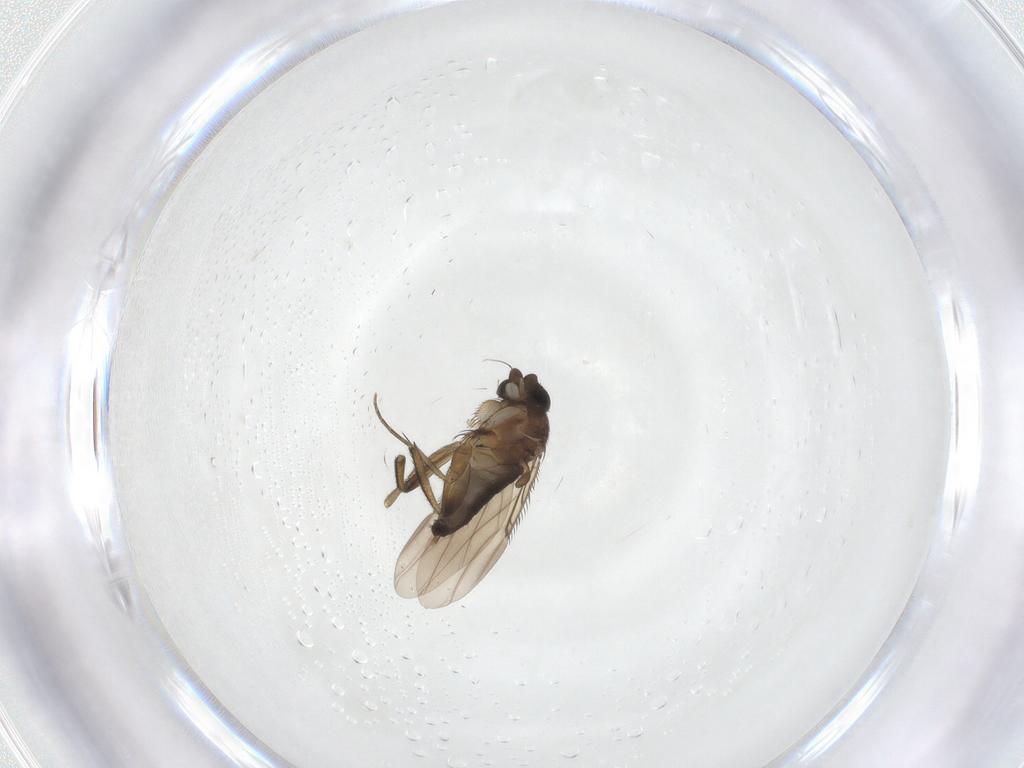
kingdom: Animalia
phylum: Arthropoda
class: Insecta
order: Diptera
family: Phoridae
